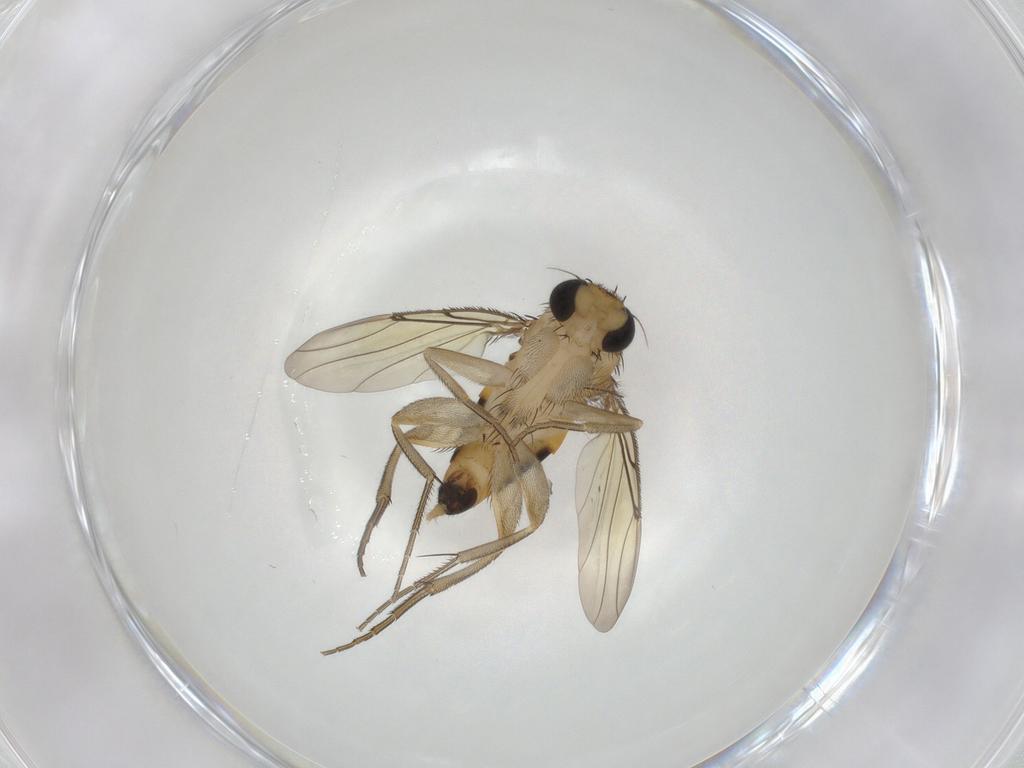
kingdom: Animalia
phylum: Arthropoda
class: Insecta
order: Diptera
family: Phoridae
